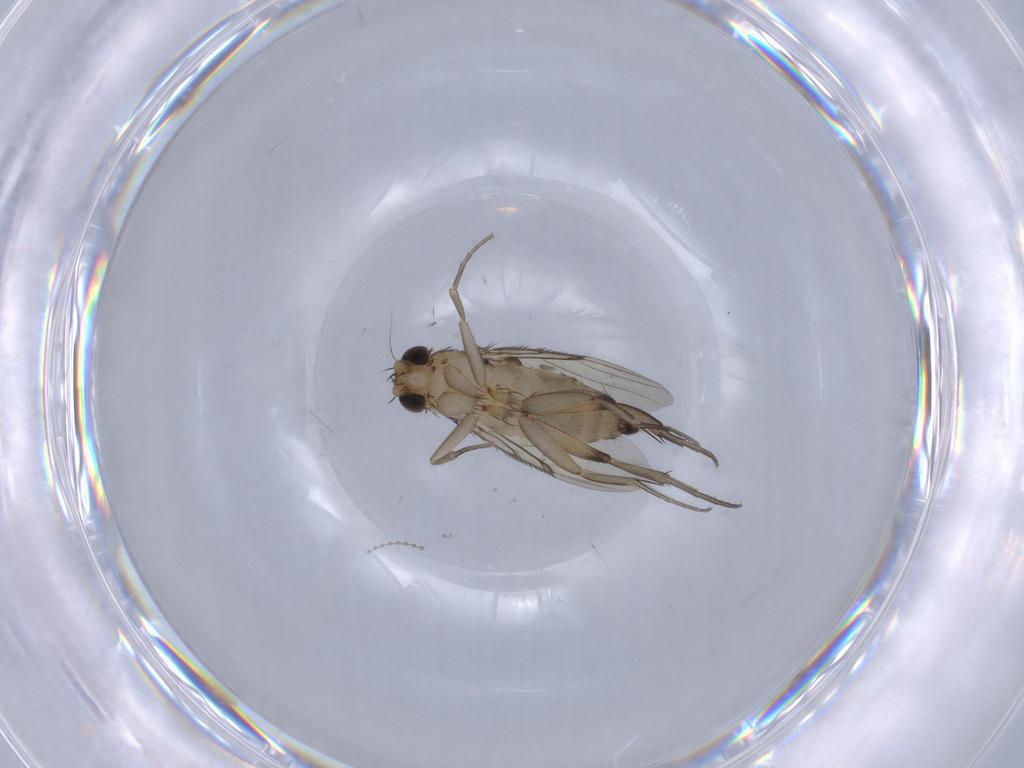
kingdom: Animalia
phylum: Arthropoda
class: Insecta
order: Diptera
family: Cecidomyiidae
